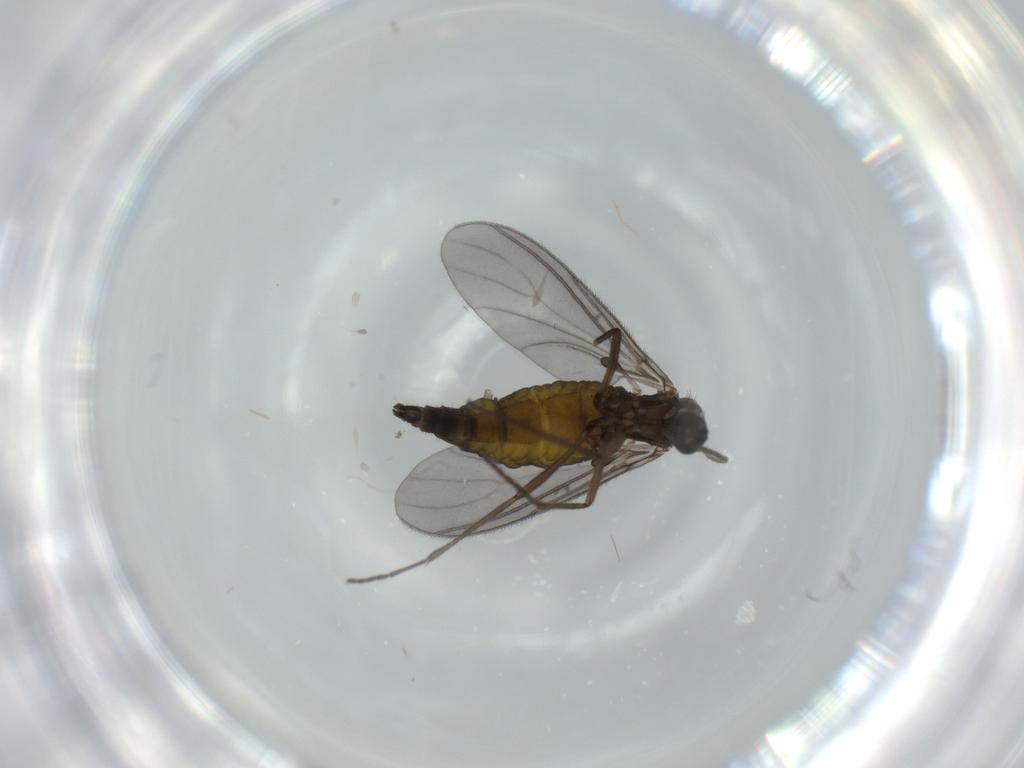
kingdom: Animalia
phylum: Arthropoda
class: Insecta
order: Diptera
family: Sciaridae
